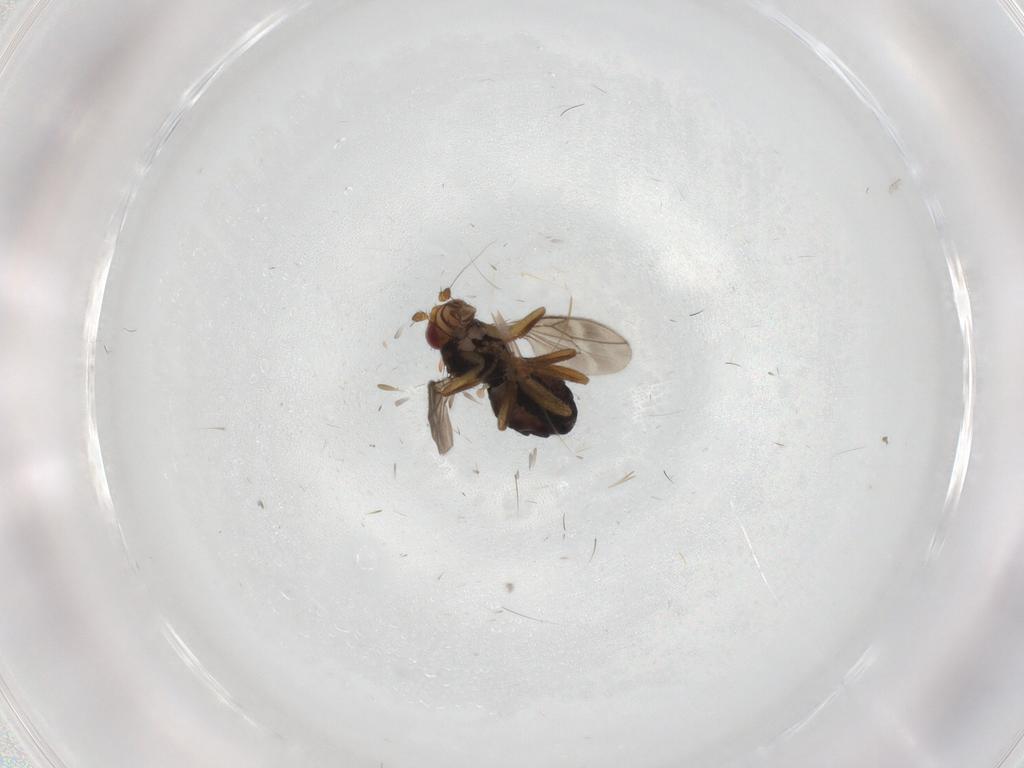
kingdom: Animalia
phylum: Arthropoda
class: Insecta
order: Diptera
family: Sphaeroceridae
